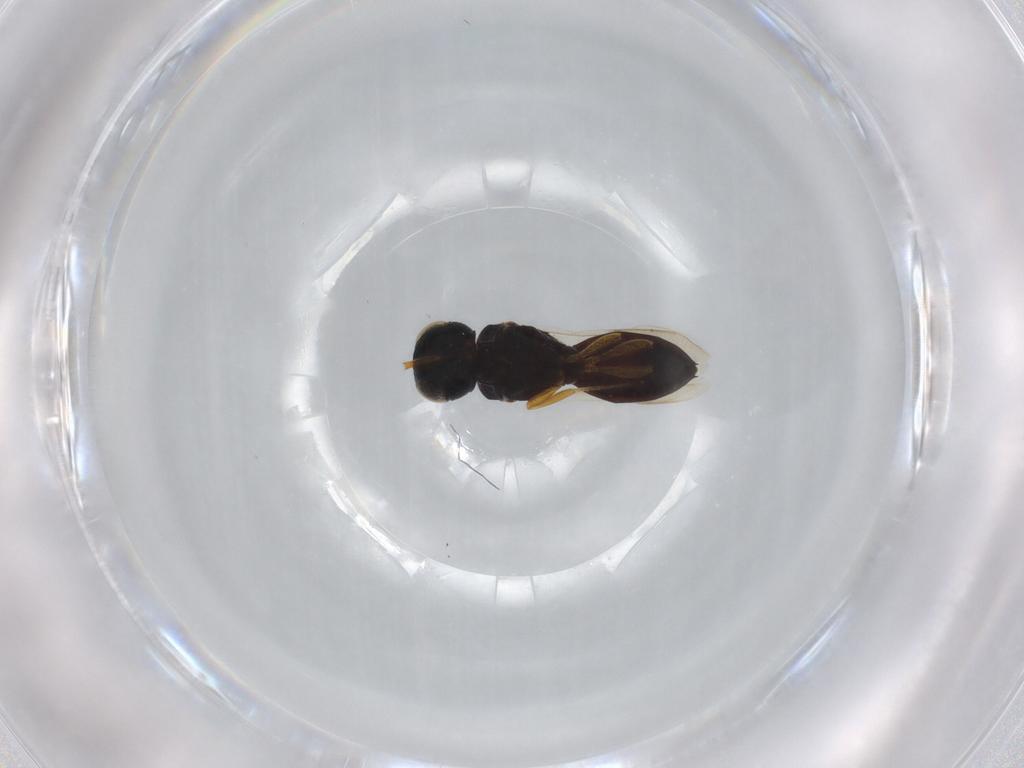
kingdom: Animalia
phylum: Arthropoda
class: Insecta
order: Hymenoptera
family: Scelionidae
